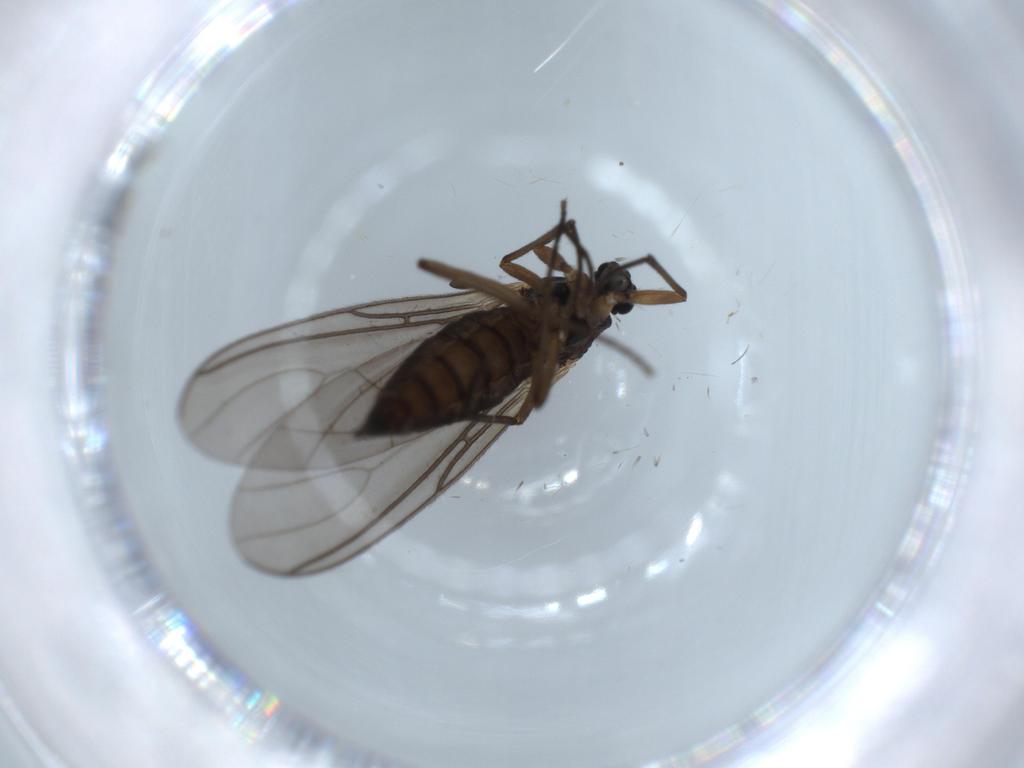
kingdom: Animalia
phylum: Arthropoda
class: Insecta
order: Diptera
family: Sciaridae
